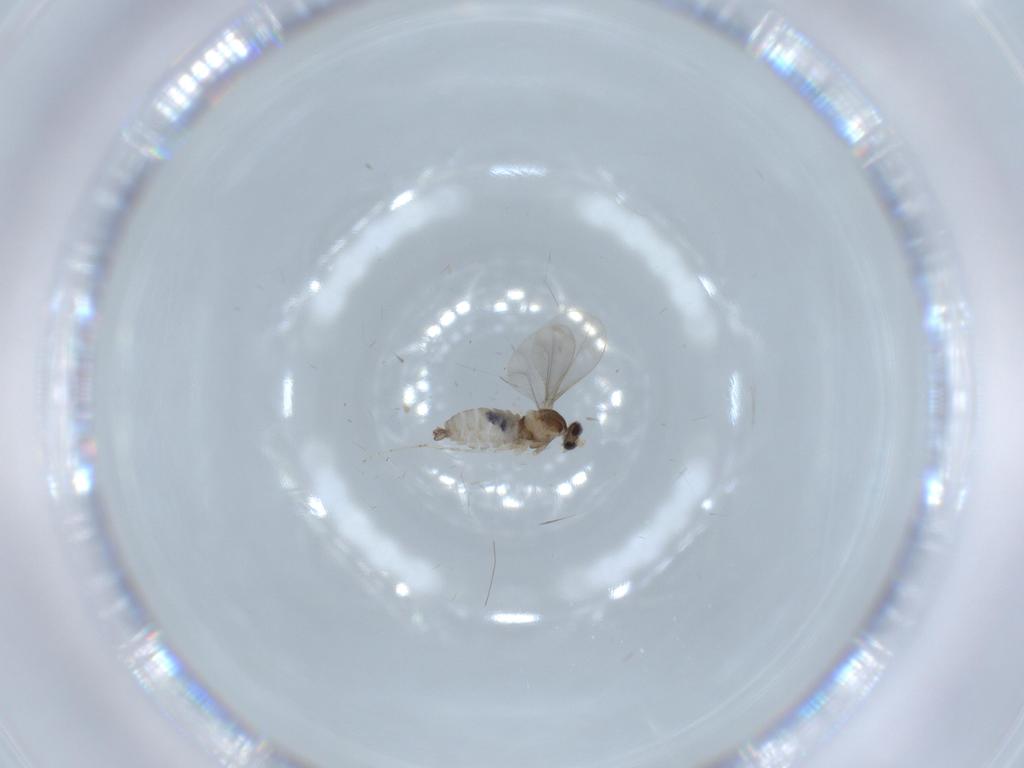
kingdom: Animalia
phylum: Arthropoda
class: Insecta
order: Diptera
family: Cecidomyiidae
